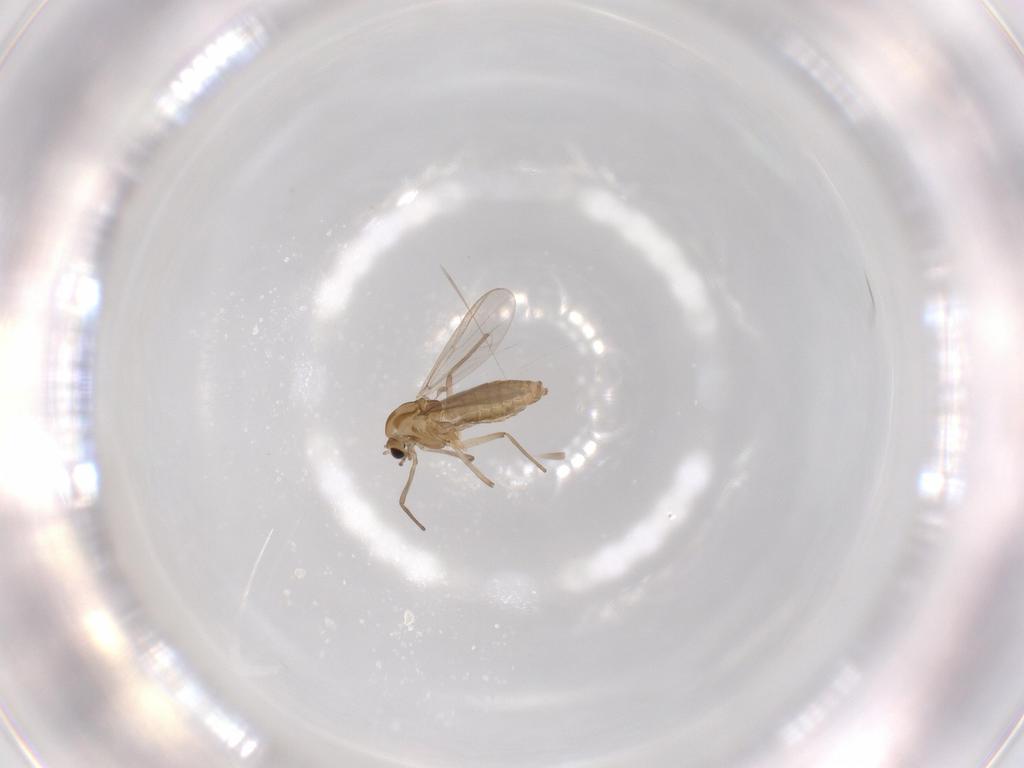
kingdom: Animalia
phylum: Arthropoda
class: Insecta
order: Diptera
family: Chironomidae
